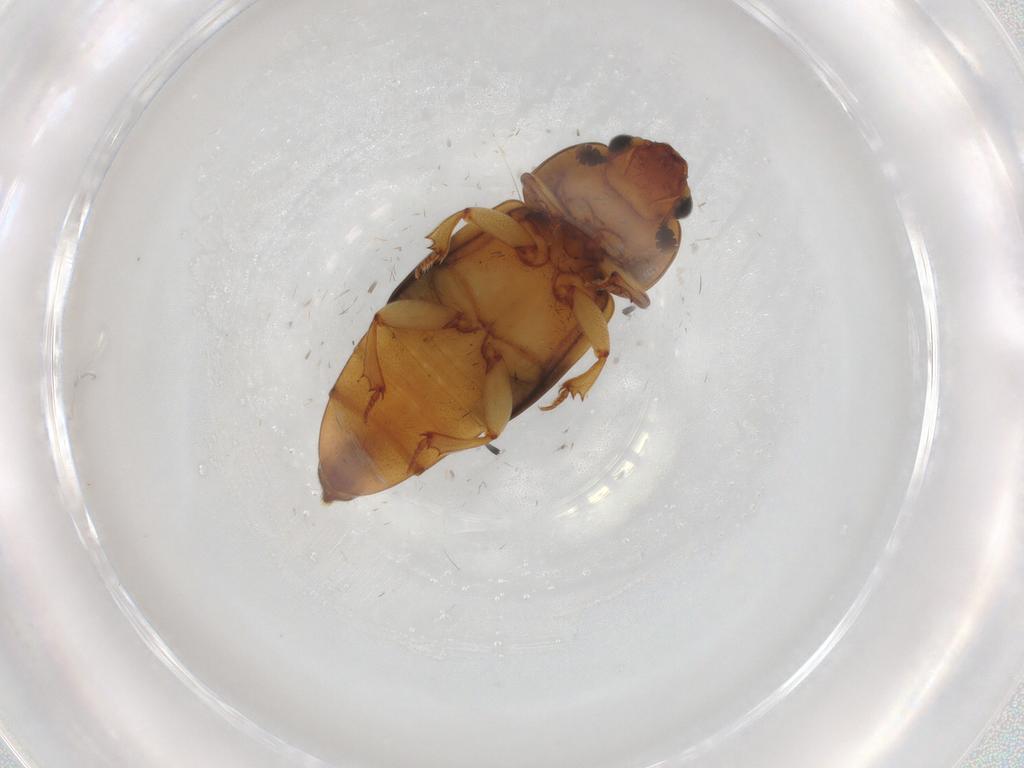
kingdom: Animalia
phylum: Arthropoda
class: Insecta
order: Coleoptera
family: Nitidulidae
